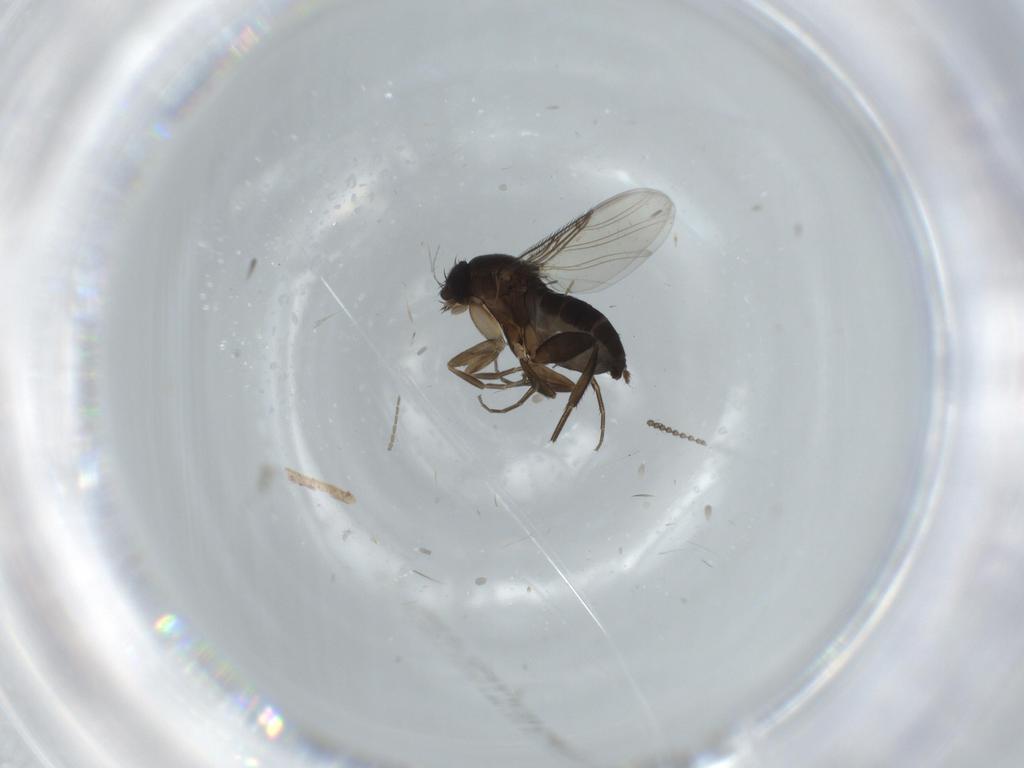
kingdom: Animalia
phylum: Arthropoda
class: Insecta
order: Diptera
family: Phoridae
